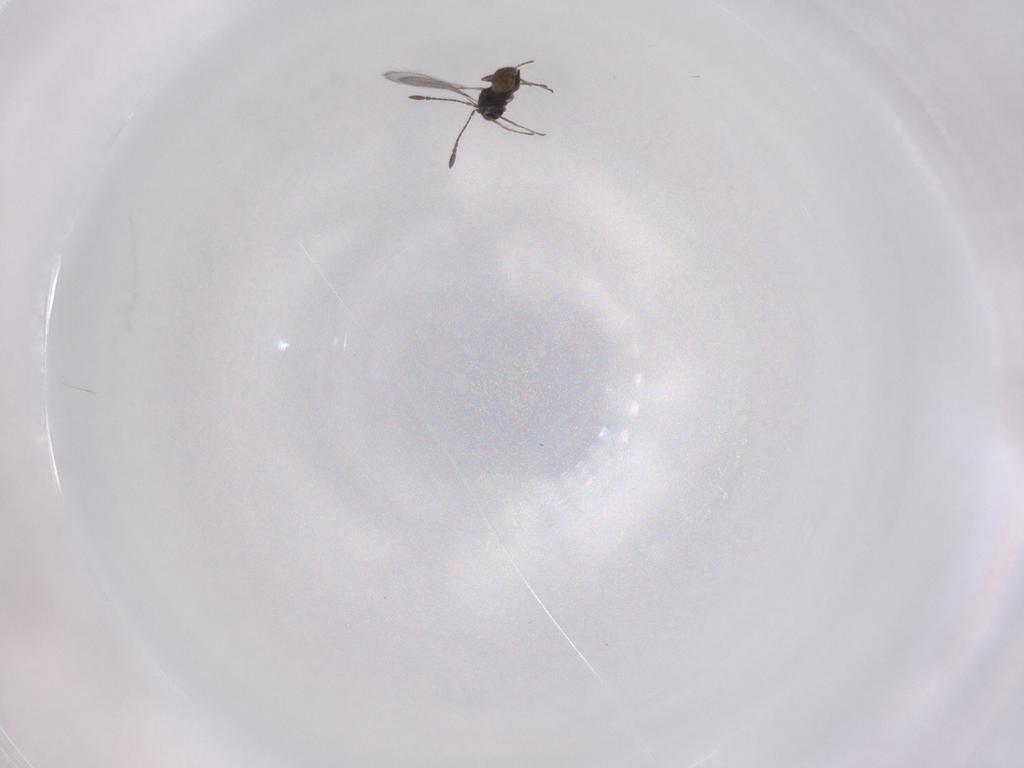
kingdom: Animalia
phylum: Arthropoda
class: Insecta
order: Hymenoptera
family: Mymaridae
